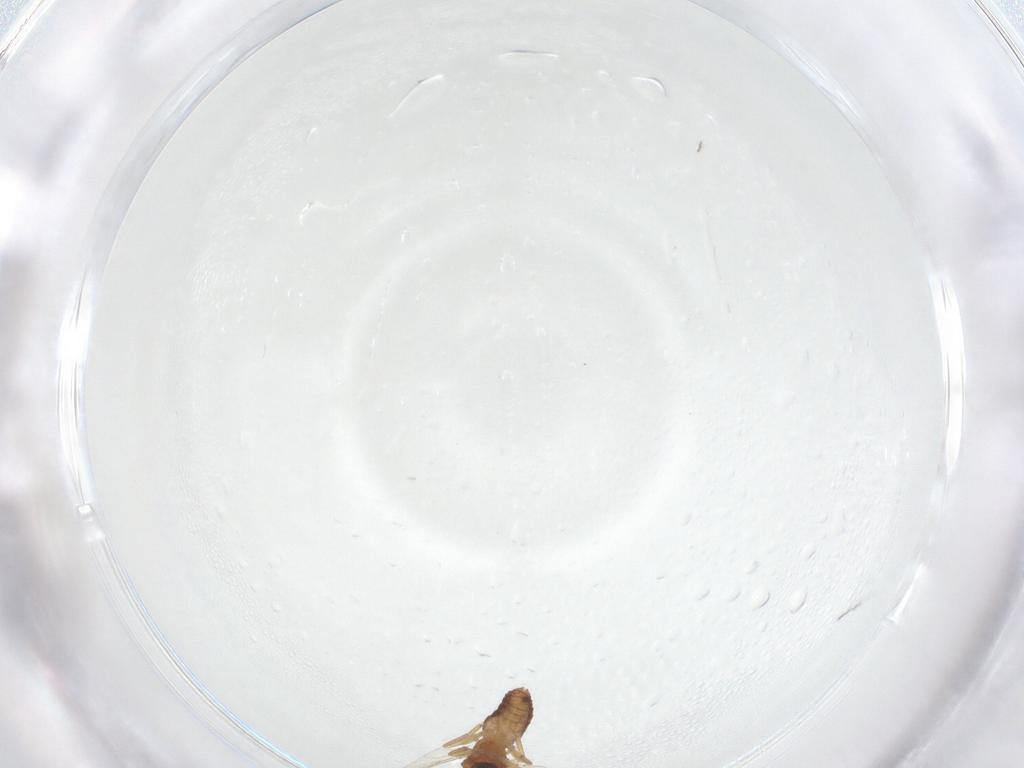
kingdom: Animalia
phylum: Arthropoda
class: Insecta
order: Diptera
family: Ceratopogonidae
